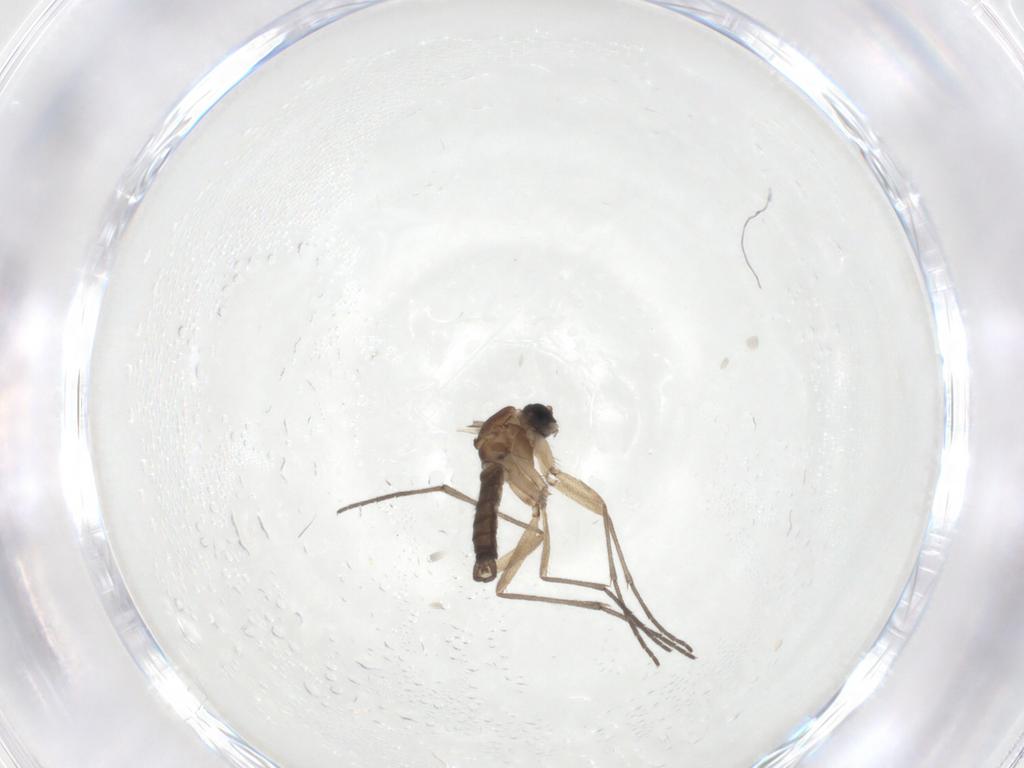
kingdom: Animalia
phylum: Arthropoda
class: Insecta
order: Diptera
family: Sciaridae
